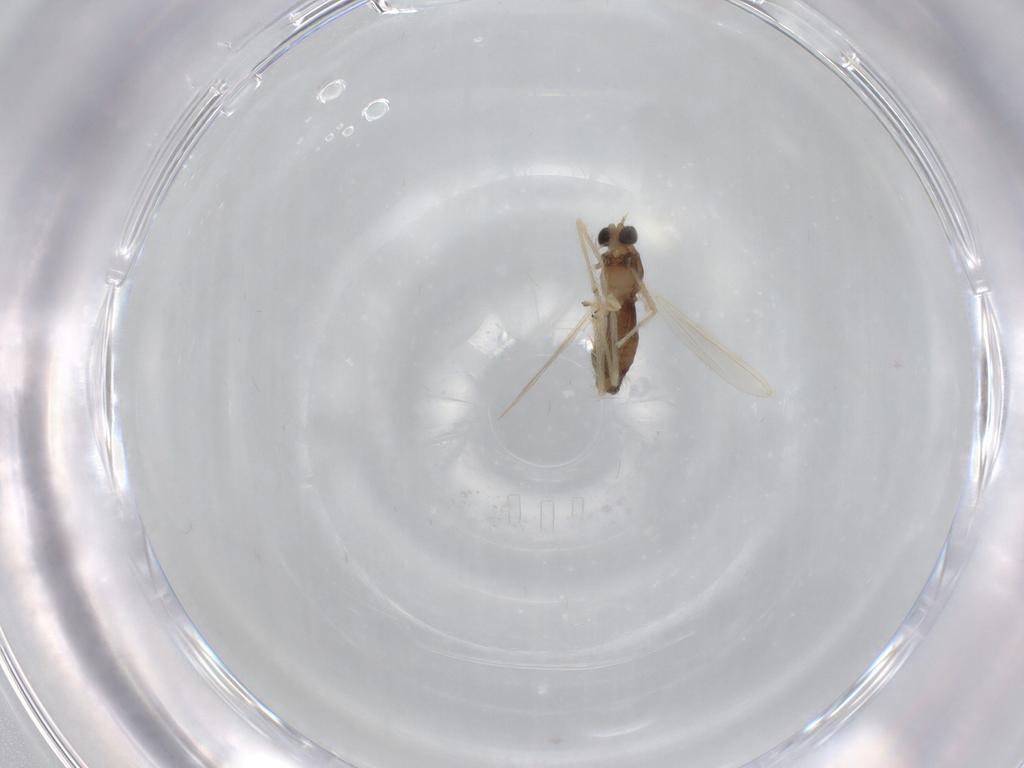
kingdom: Animalia
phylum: Arthropoda
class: Insecta
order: Diptera
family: Chironomidae
